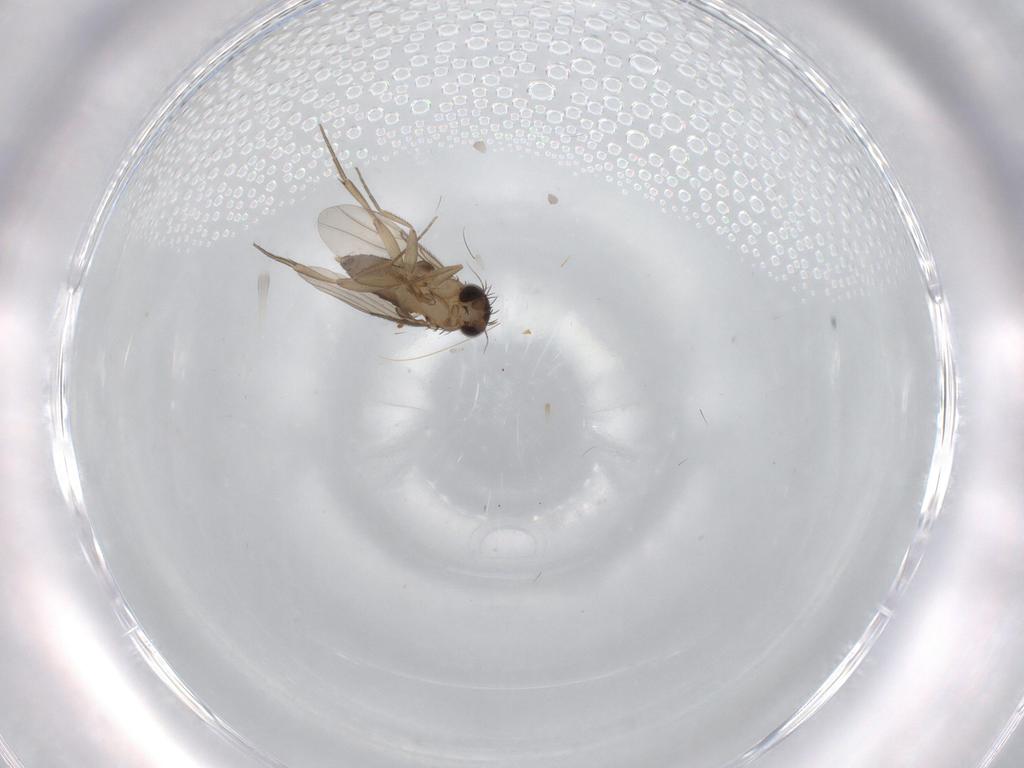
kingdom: Animalia
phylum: Arthropoda
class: Insecta
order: Diptera
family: Phoridae
